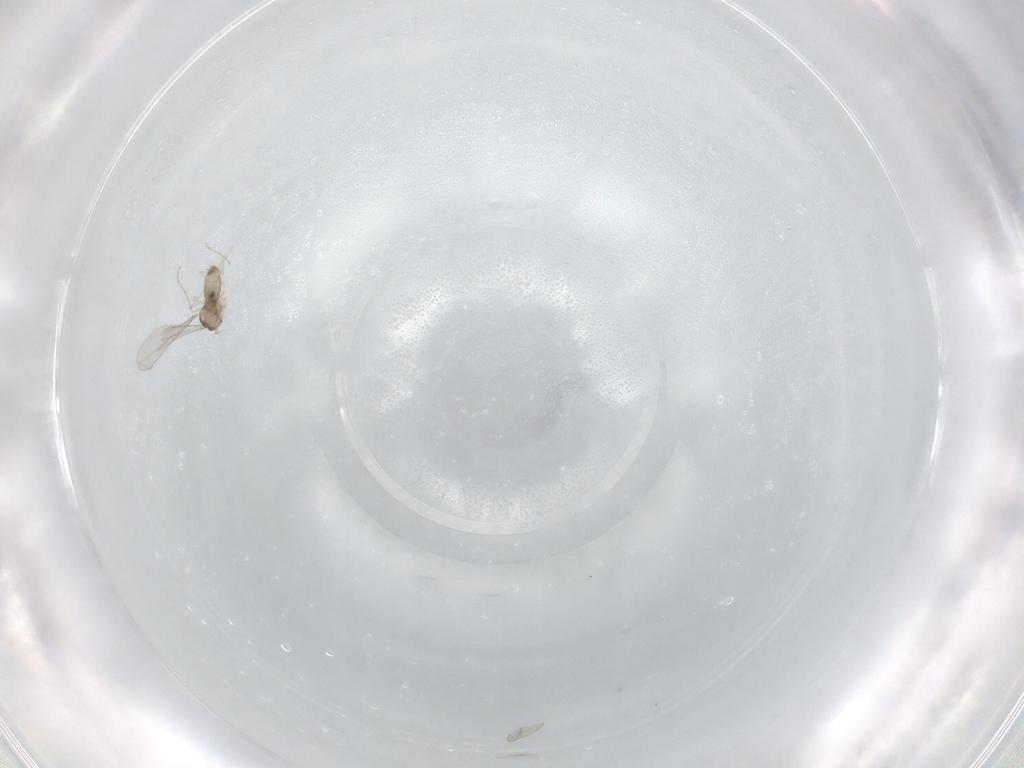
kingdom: Animalia
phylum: Arthropoda
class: Insecta
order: Diptera
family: Cecidomyiidae
